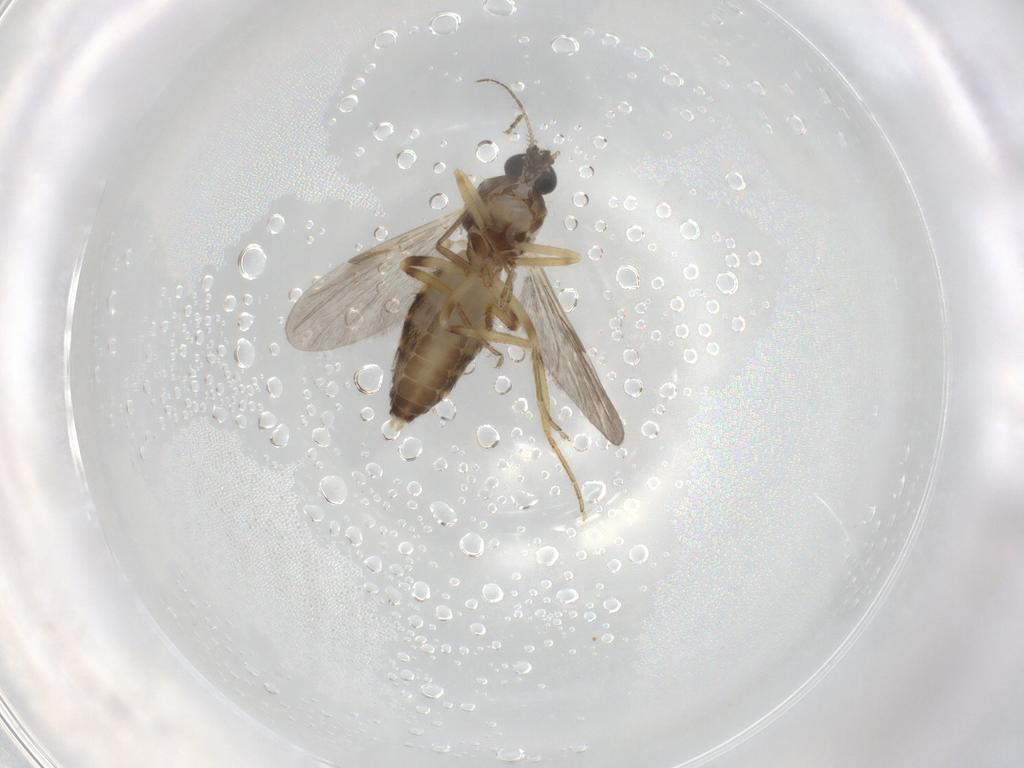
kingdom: Animalia
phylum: Arthropoda
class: Insecta
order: Diptera
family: Ceratopogonidae
